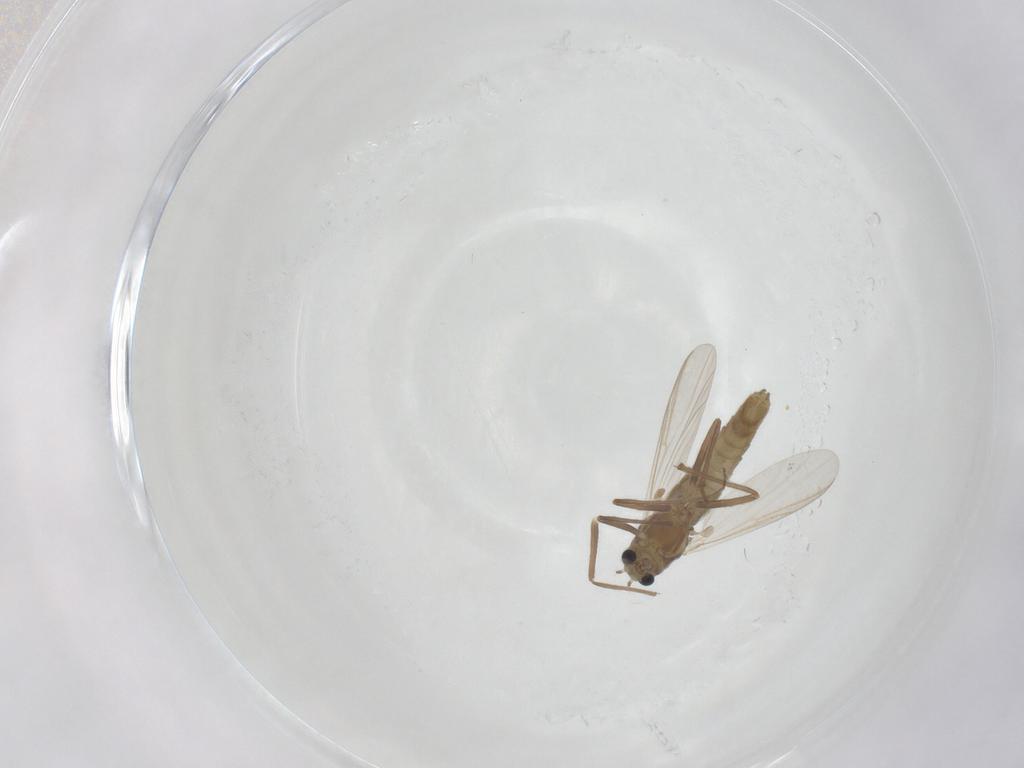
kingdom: Animalia
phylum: Arthropoda
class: Insecta
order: Diptera
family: Chironomidae
